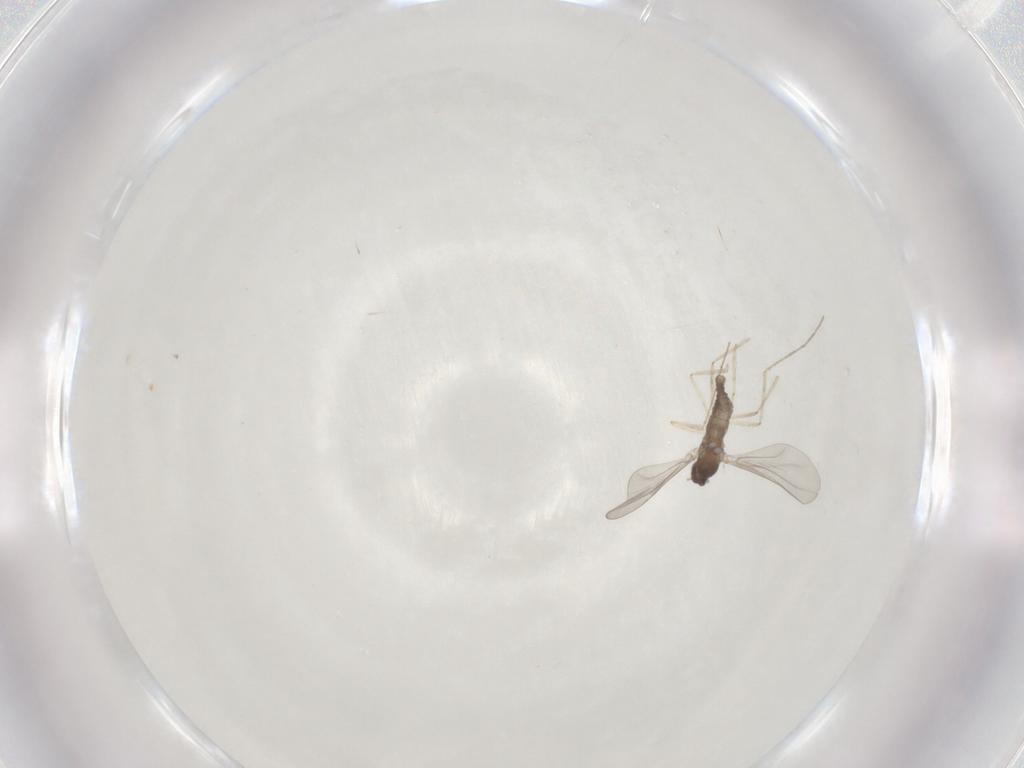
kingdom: Animalia
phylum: Arthropoda
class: Insecta
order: Diptera
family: Cecidomyiidae
